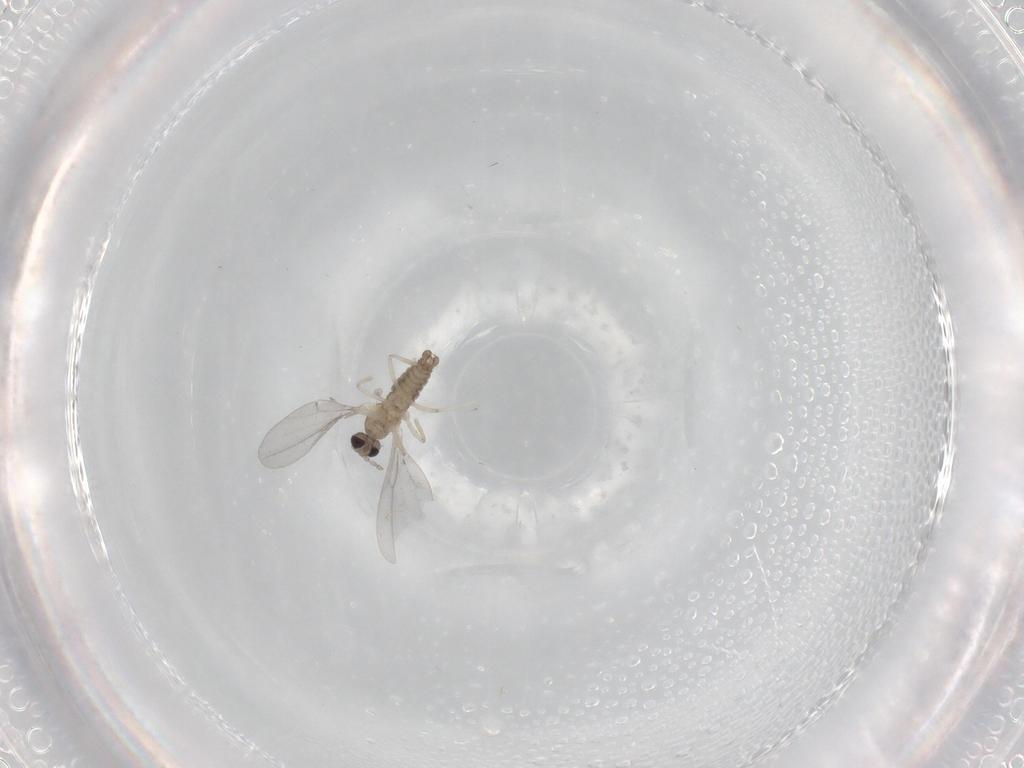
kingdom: Animalia
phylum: Arthropoda
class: Insecta
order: Diptera
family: Cecidomyiidae
